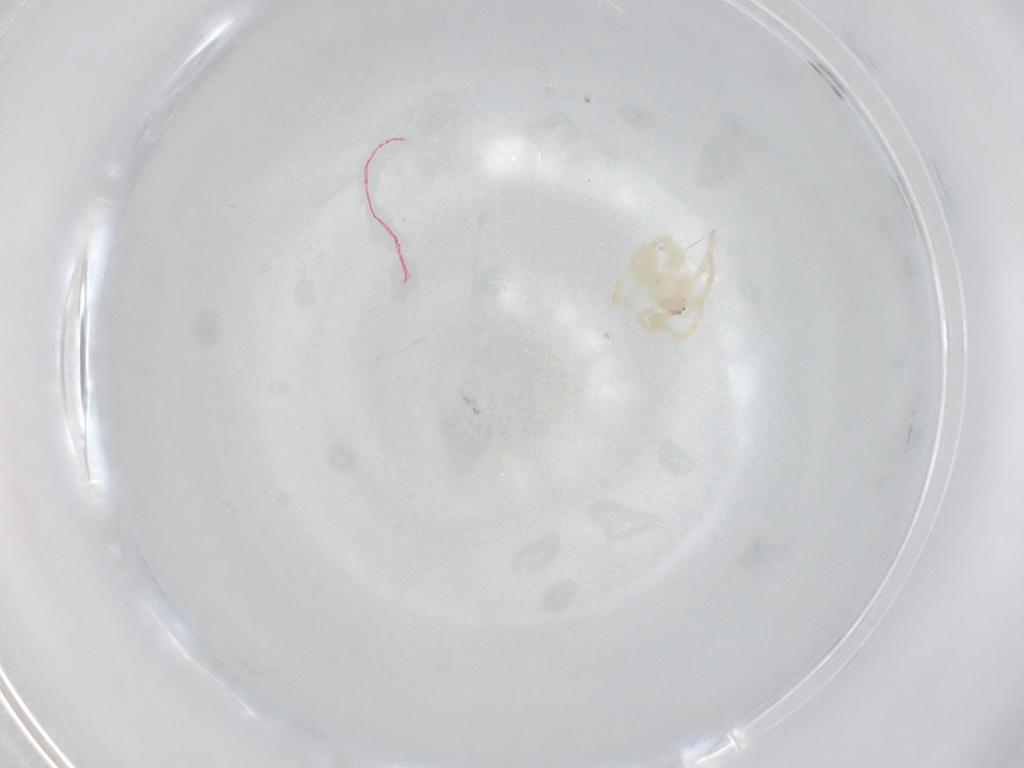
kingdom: Animalia
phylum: Arthropoda
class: Arachnida
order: Araneae
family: Theridiidae
